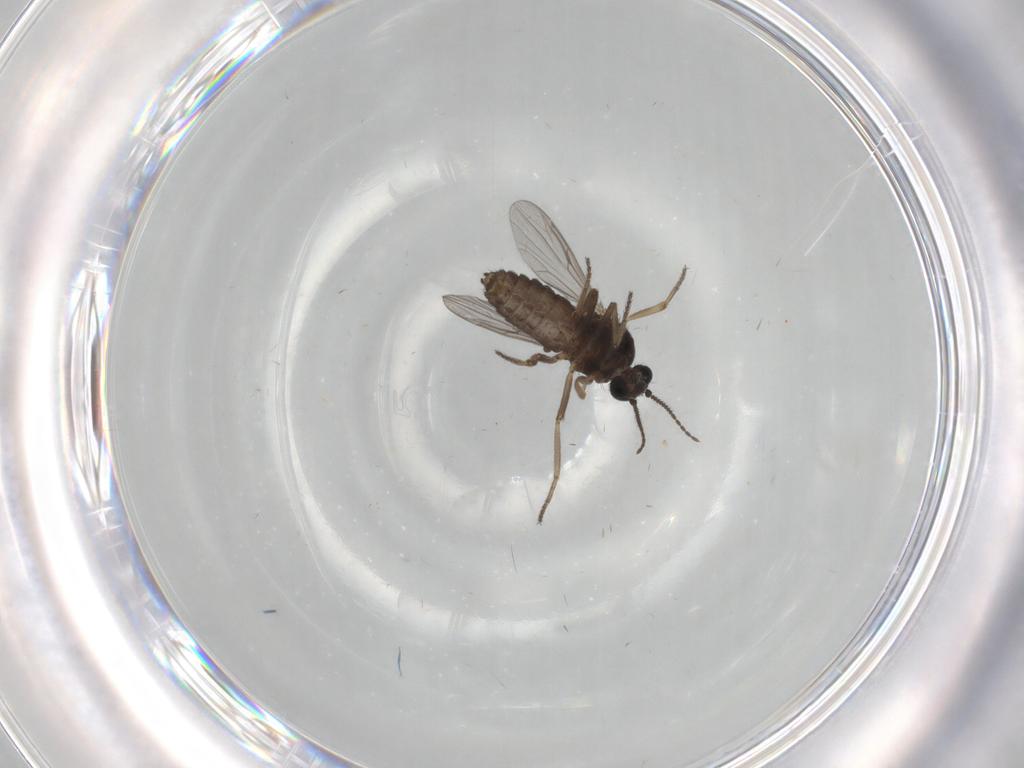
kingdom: Animalia
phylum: Arthropoda
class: Insecta
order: Diptera
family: Ceratopogonidae
